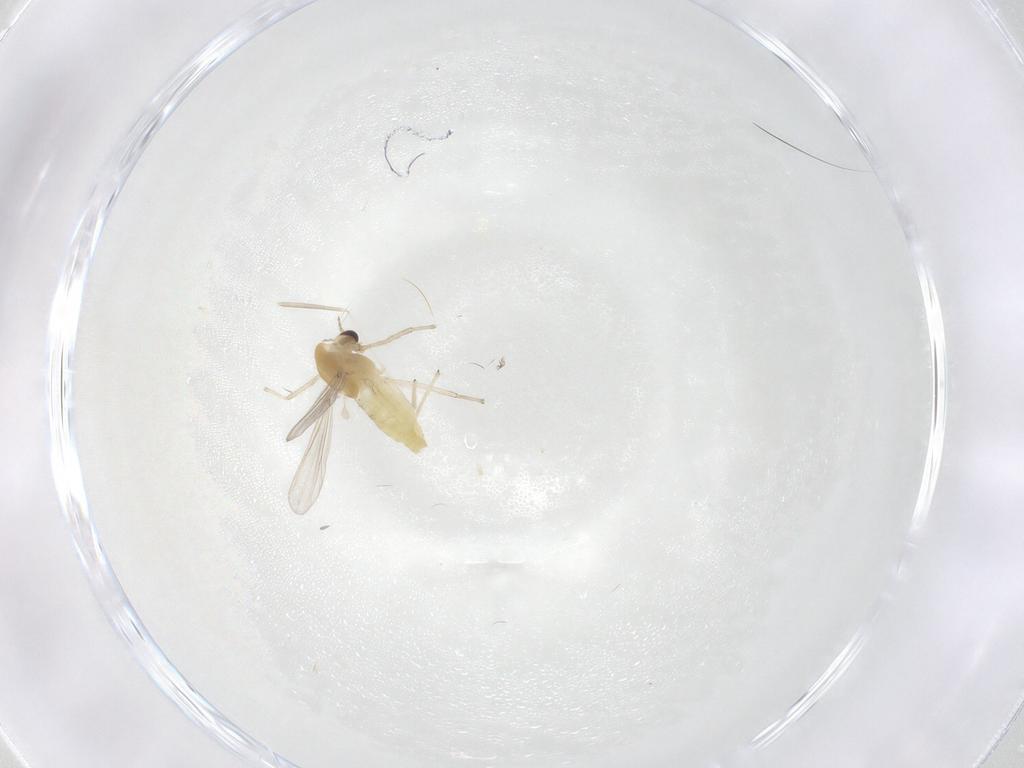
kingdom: Animalia
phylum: Arthropoda
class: Insecta
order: Diptera
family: Cecidomyiidae
